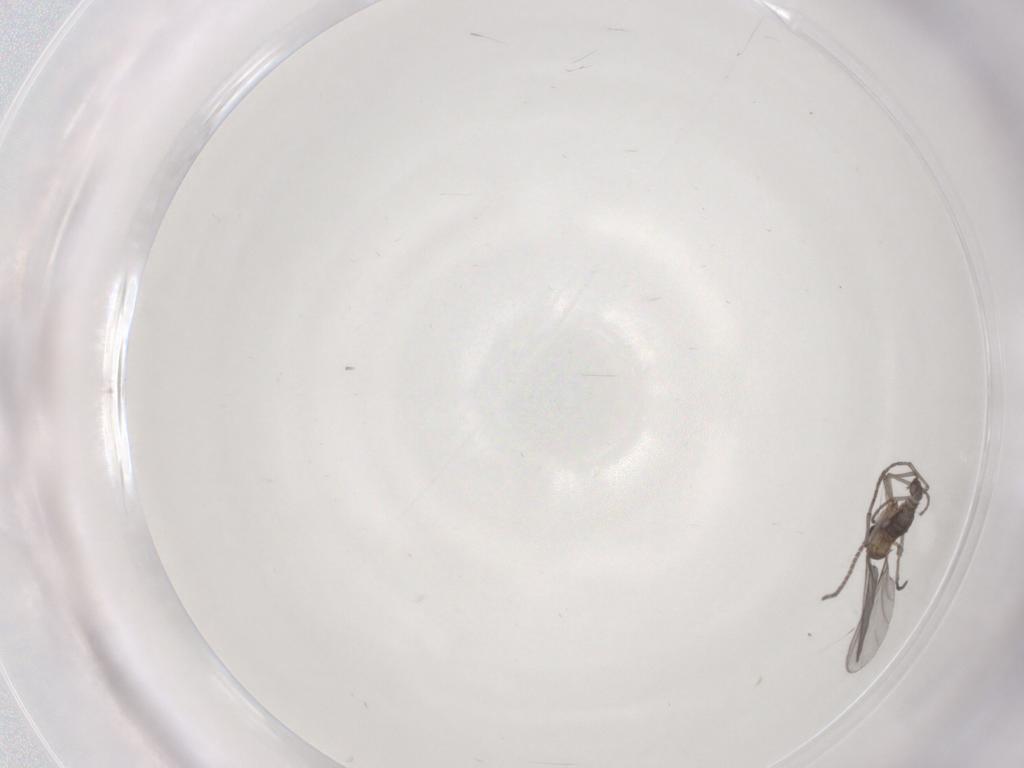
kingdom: Animalia
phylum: Arthropoda
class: Insecta
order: Diptera
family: Sciaridae
